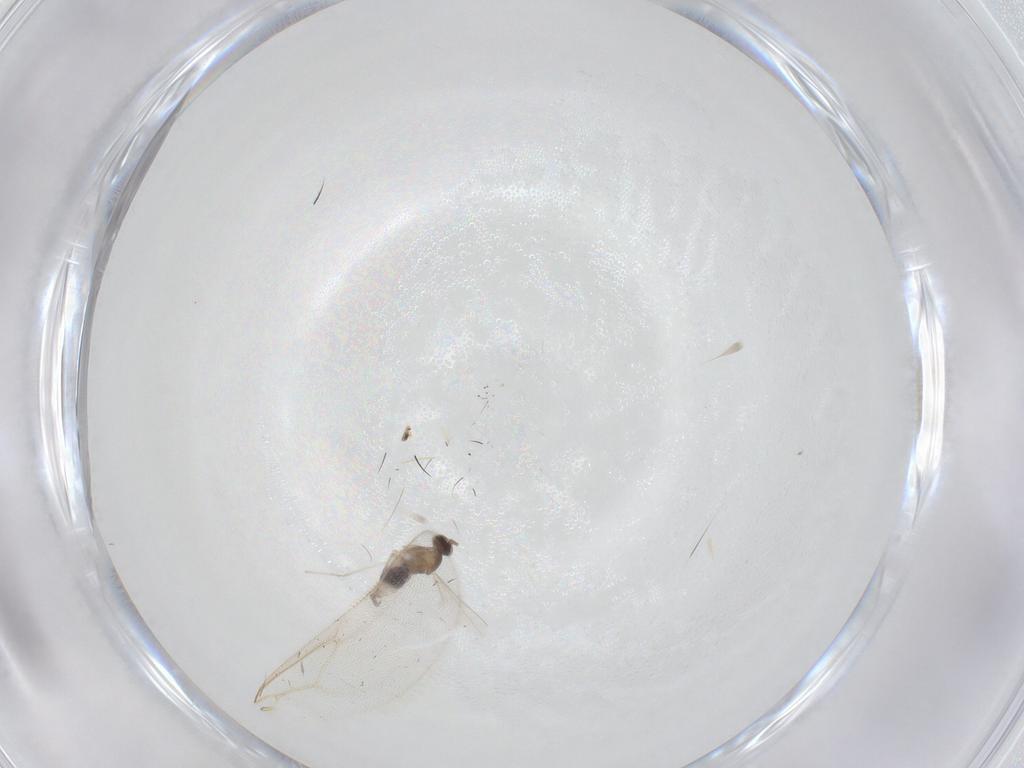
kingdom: Animalia
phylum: Arthropoda
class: Insecta
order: Diptera
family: Cecidomyiidae
